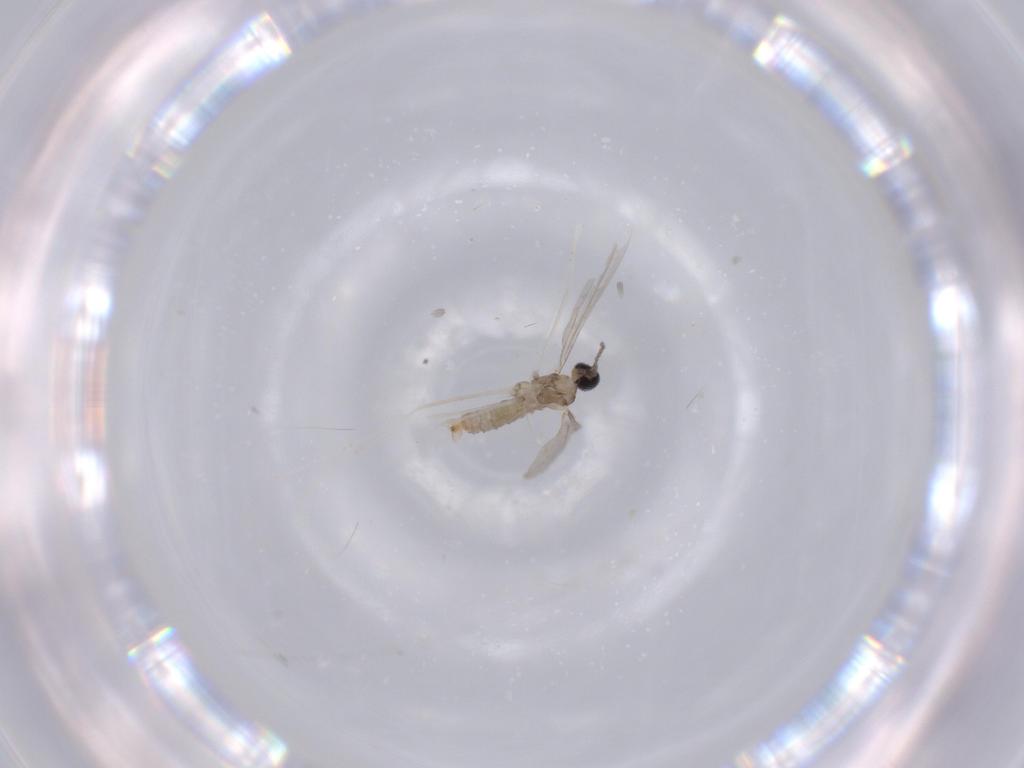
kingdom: Animalia
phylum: Arthropoda
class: Insecta
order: Diptera
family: Cecidomyiidae
